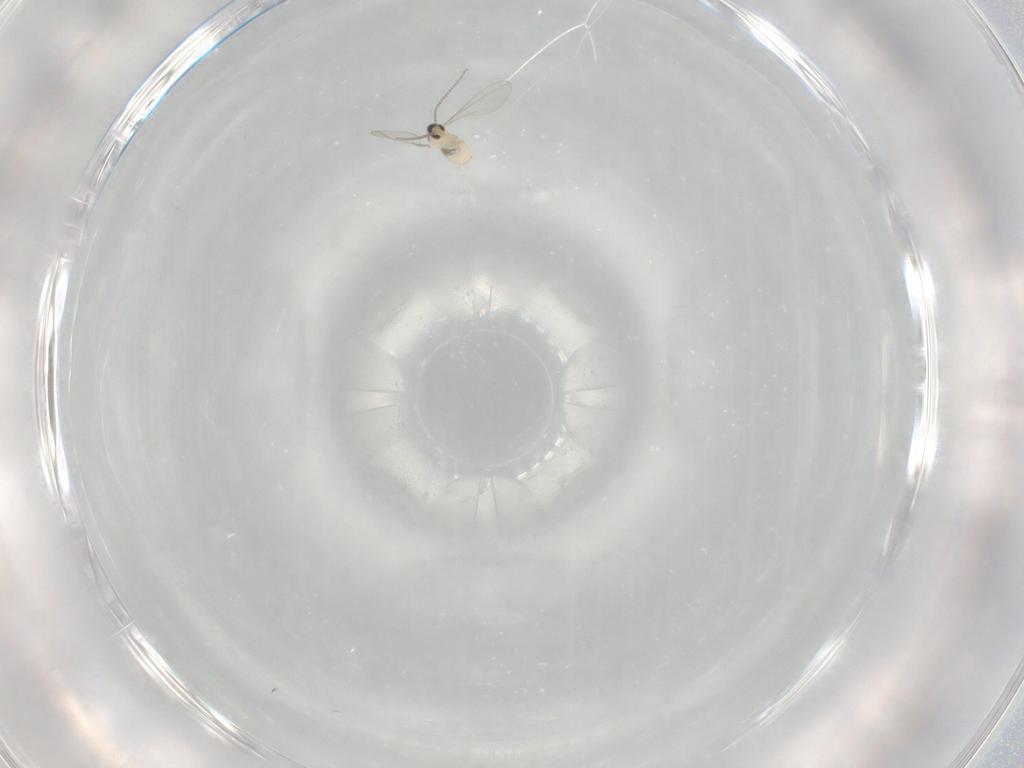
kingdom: Animalia
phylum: Arthropoda
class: Insecta
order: Diptera
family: Cecidomyiidae
